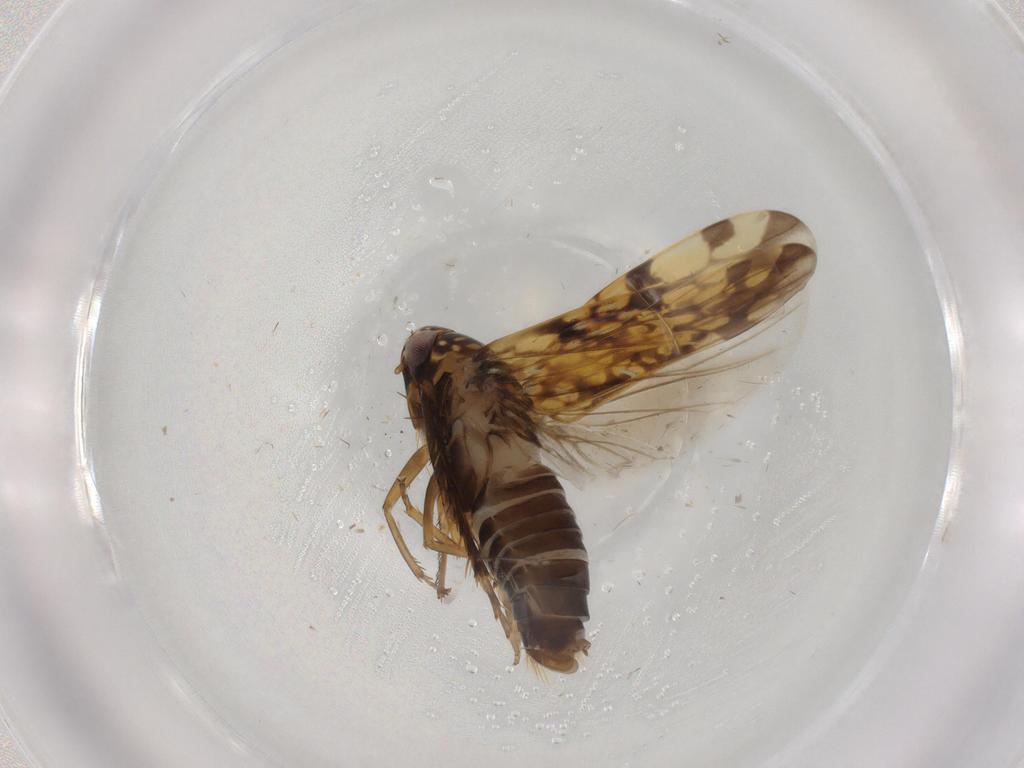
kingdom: Animalia
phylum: Arthropoda
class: Insecta
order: Hemiptera
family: Cicadellidae
